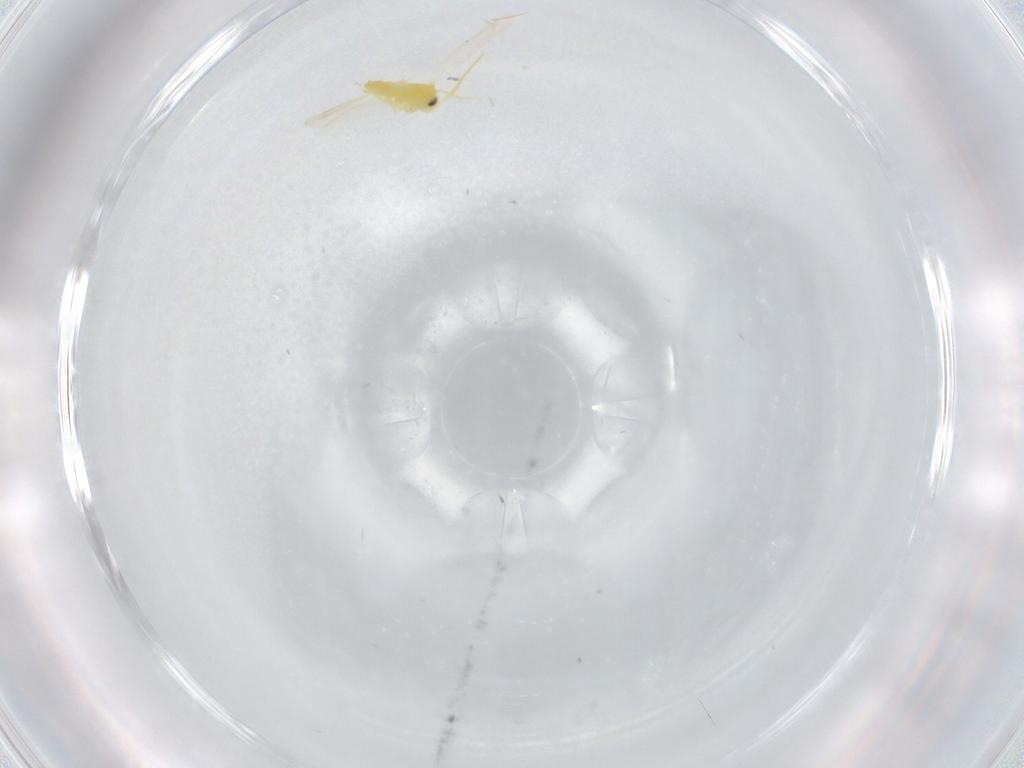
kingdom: Animalia
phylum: Arthropoda
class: Insecta
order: Hemiptera
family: Aleyrodidae
